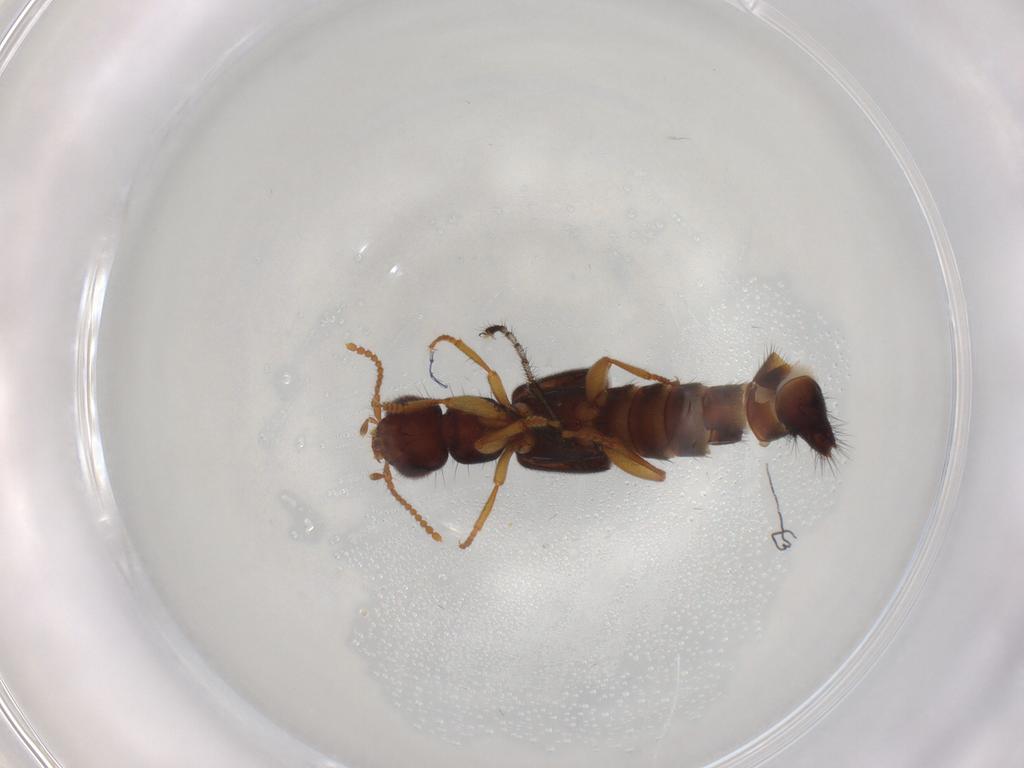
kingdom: Animalia
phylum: Arthropoda
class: Insecta
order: Coleoptera
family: Staphylinidae
